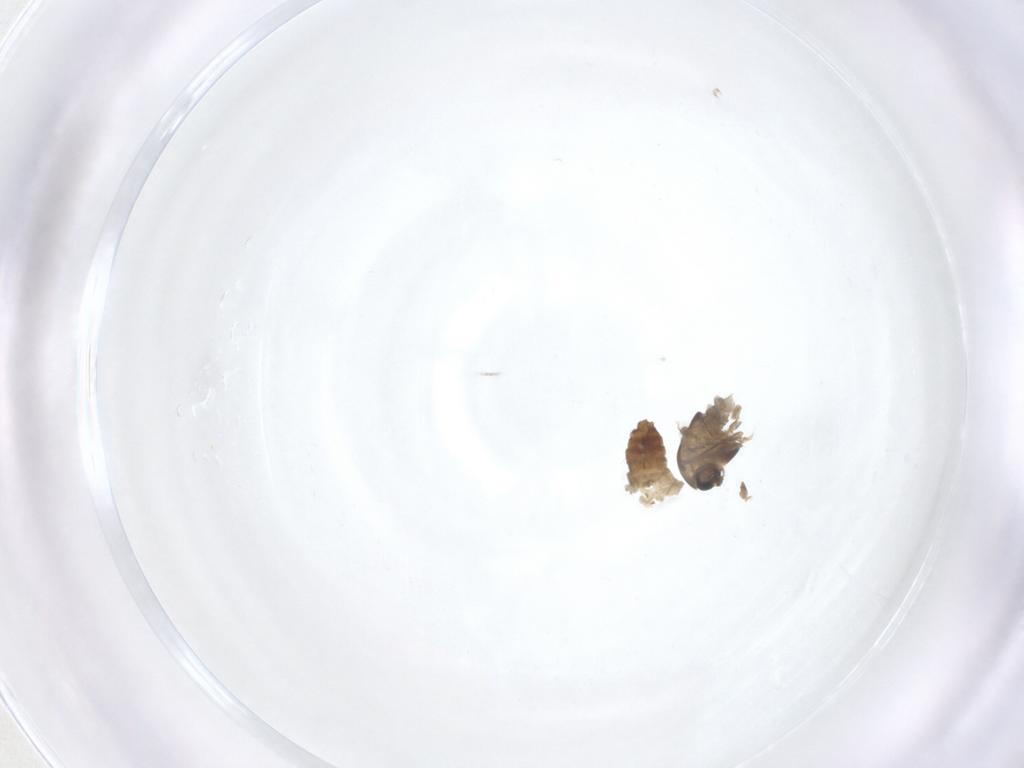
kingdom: Animalia
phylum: Arthropoda
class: Insecta
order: Diptera
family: Chironomidae
